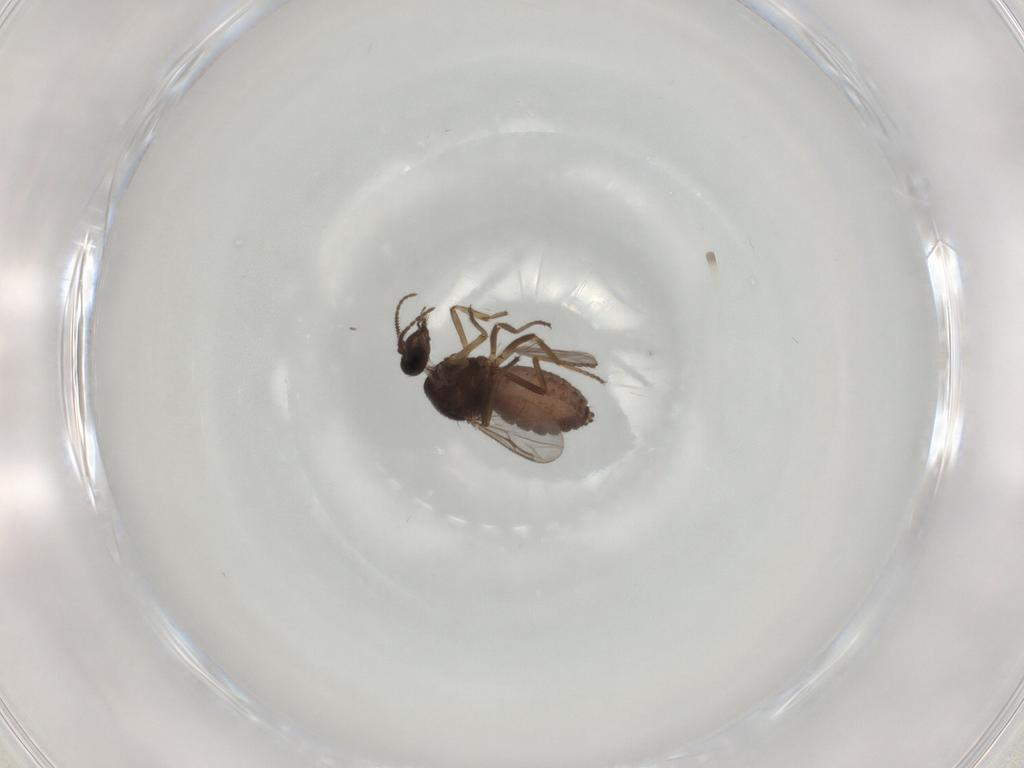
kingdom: Animalia
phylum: Arthropoda
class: Insecta
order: Diptera
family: Ceratopogonidae
